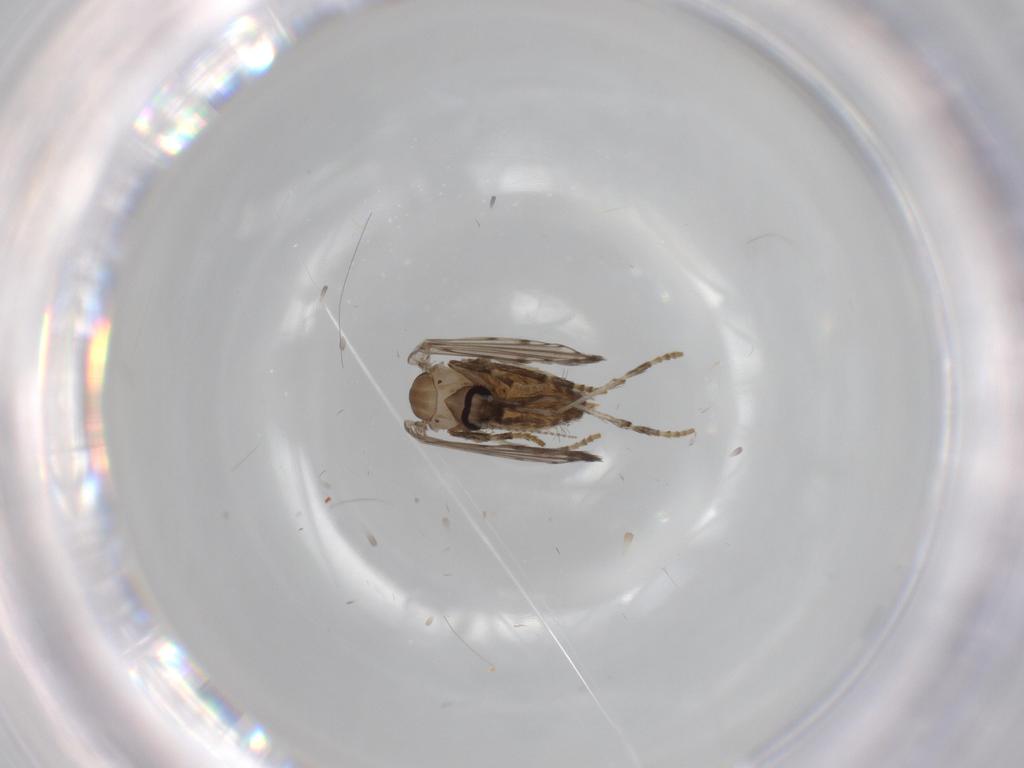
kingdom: Animalia
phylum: Arthropoda
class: Insecta
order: Diptera
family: Psychodidae
